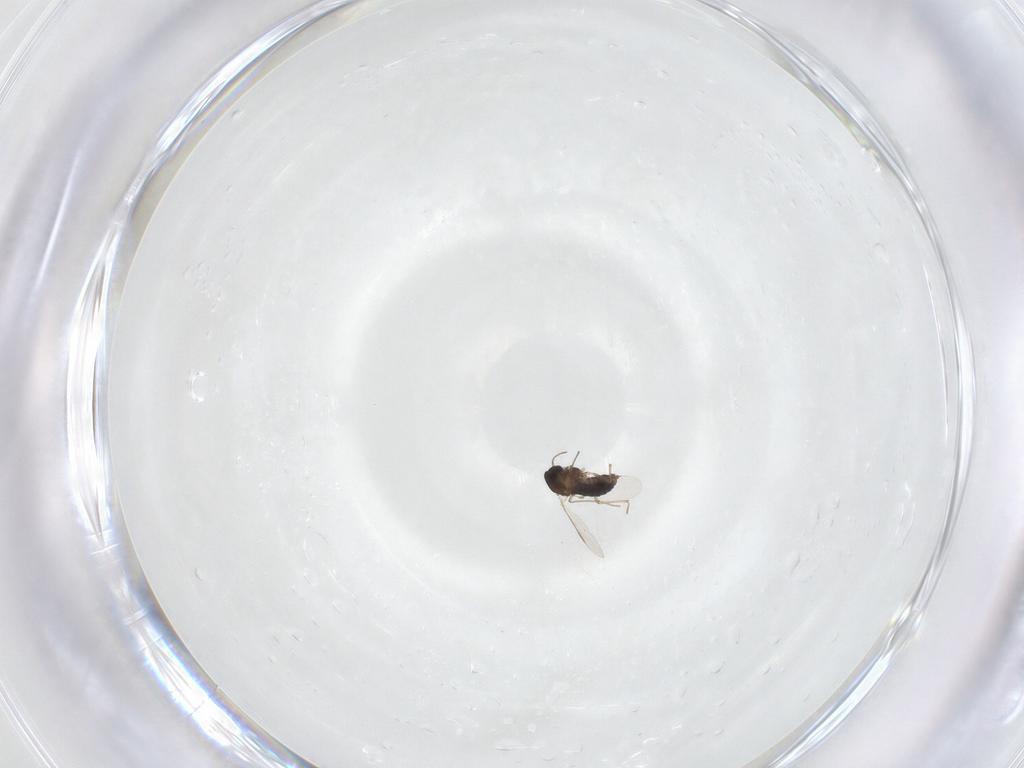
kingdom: Animalia
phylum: Arthropoda
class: Insecta
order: Diptera
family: Chironomidae
